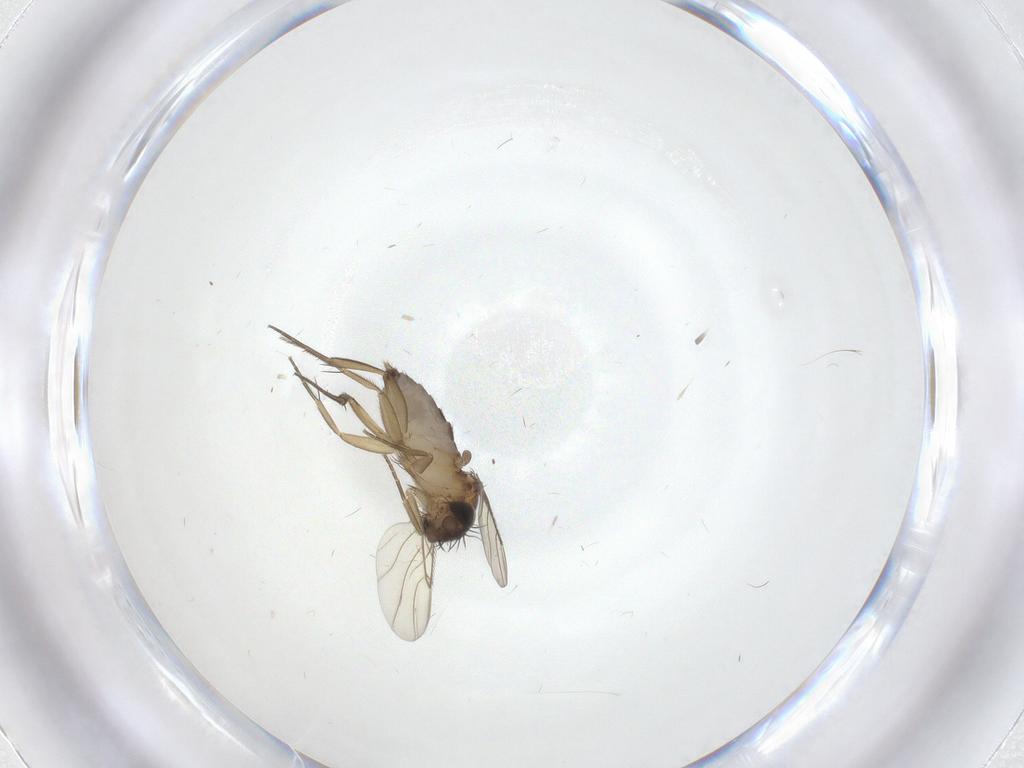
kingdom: Animalia
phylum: Arthropoda
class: Insecta
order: Diptera
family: Phoridae
